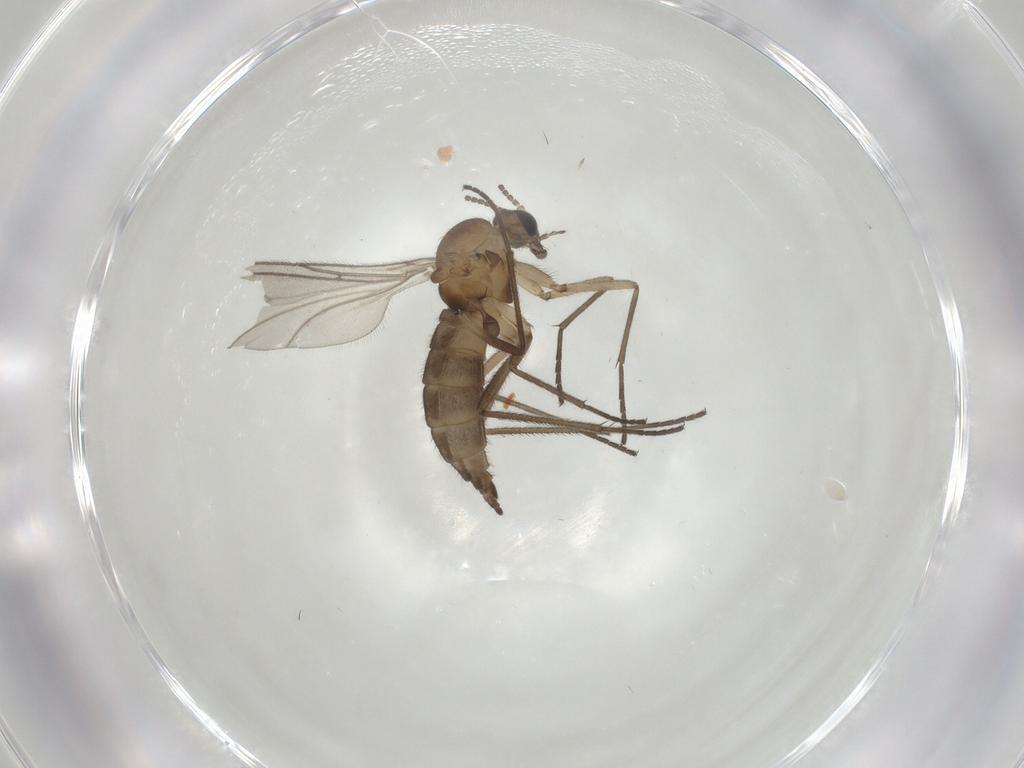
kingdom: Animalia
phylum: Arthropoda
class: Insecta
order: Diptera
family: Sciaridae
